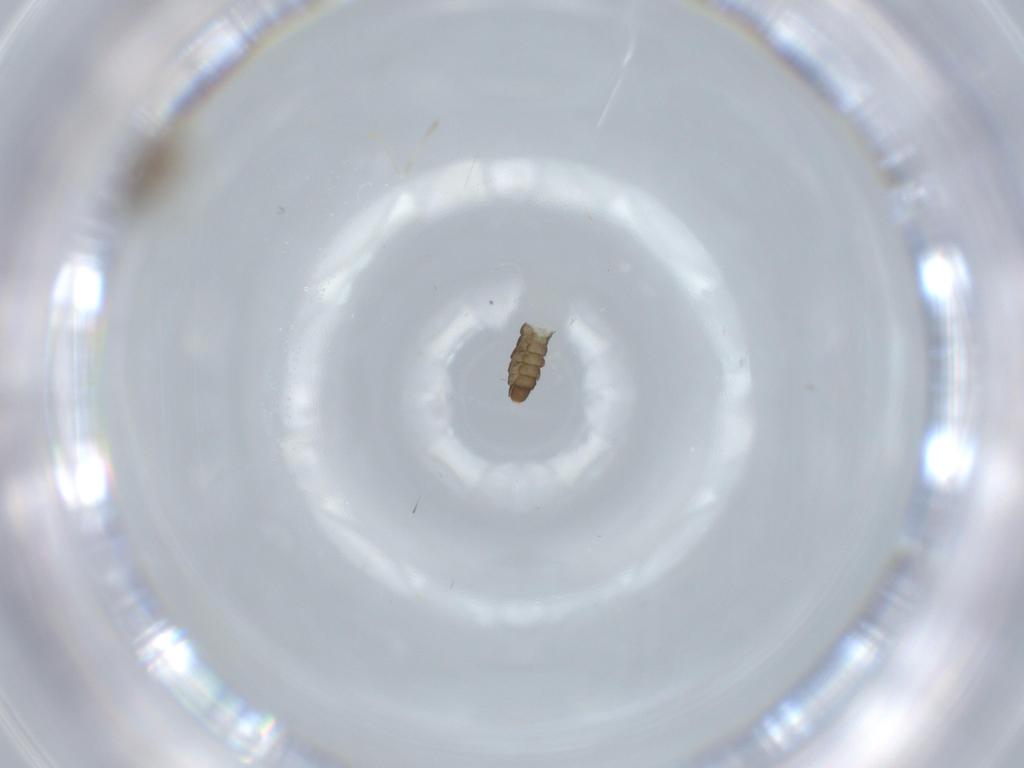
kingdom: Animalia
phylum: Arthropoda
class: Insecta
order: Diptera
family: Cecidomyiidae
